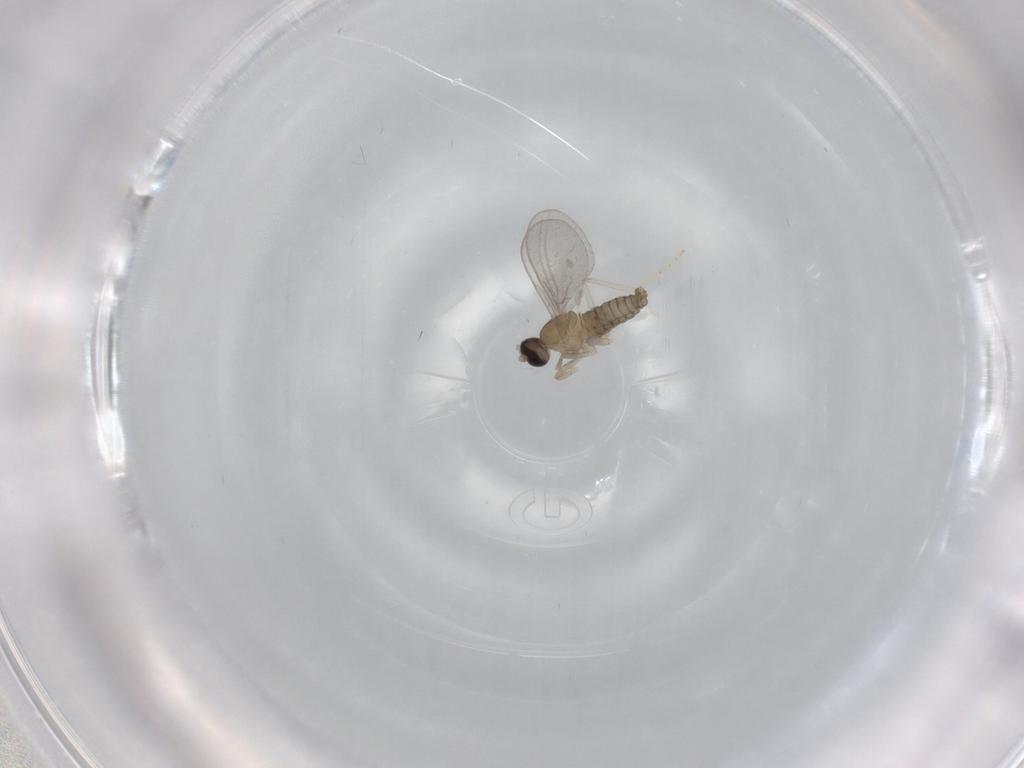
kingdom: Animalia
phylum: Arthropoda
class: Insecta
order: Diptera
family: Cecidomyiidae
